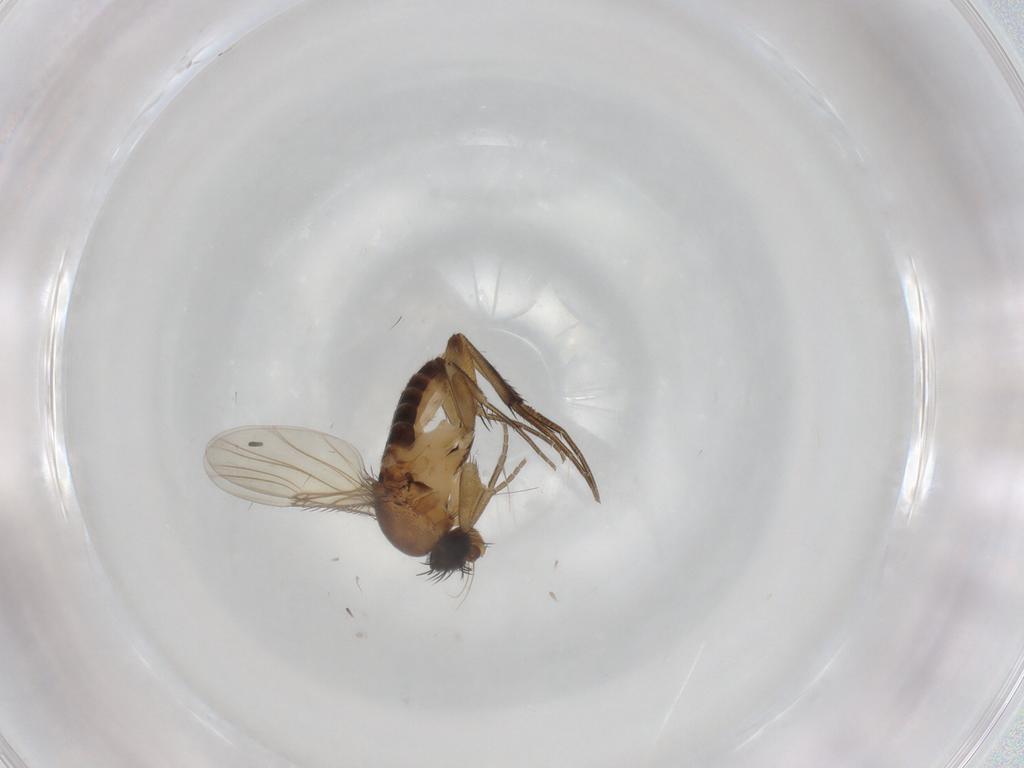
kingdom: Animalia
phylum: Arthropoda
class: Insecta
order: Diptera
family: Phoridae
